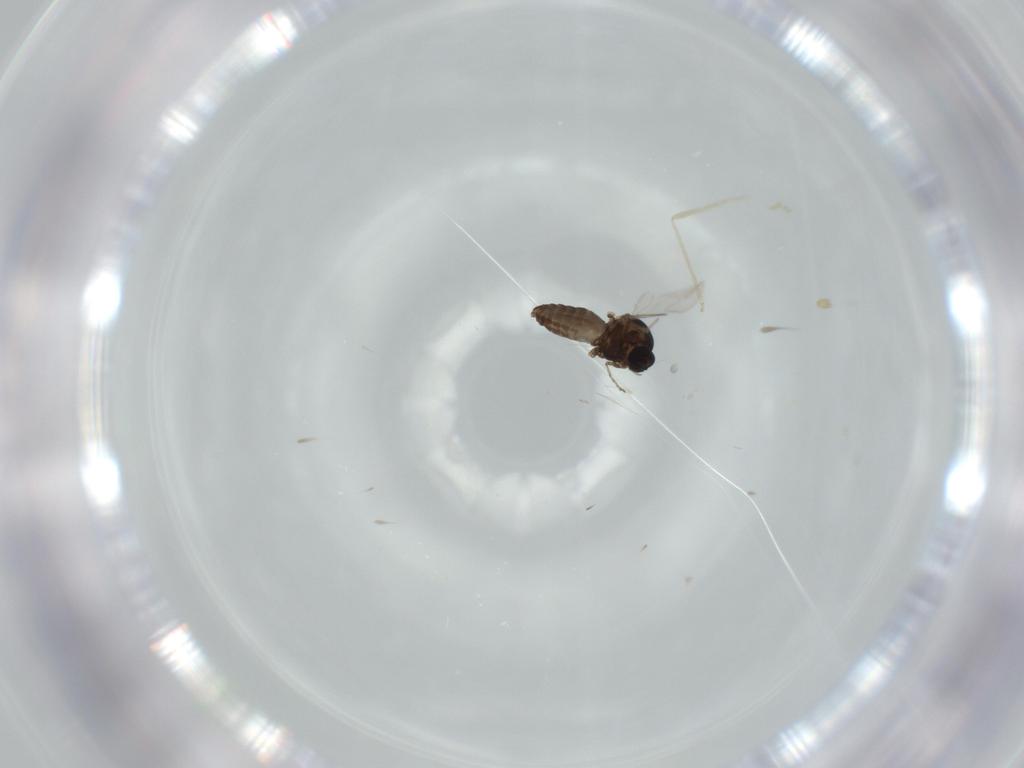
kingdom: Animalia
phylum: Arthropoda
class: Insecta
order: Diptera
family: Ceratopogonidae
